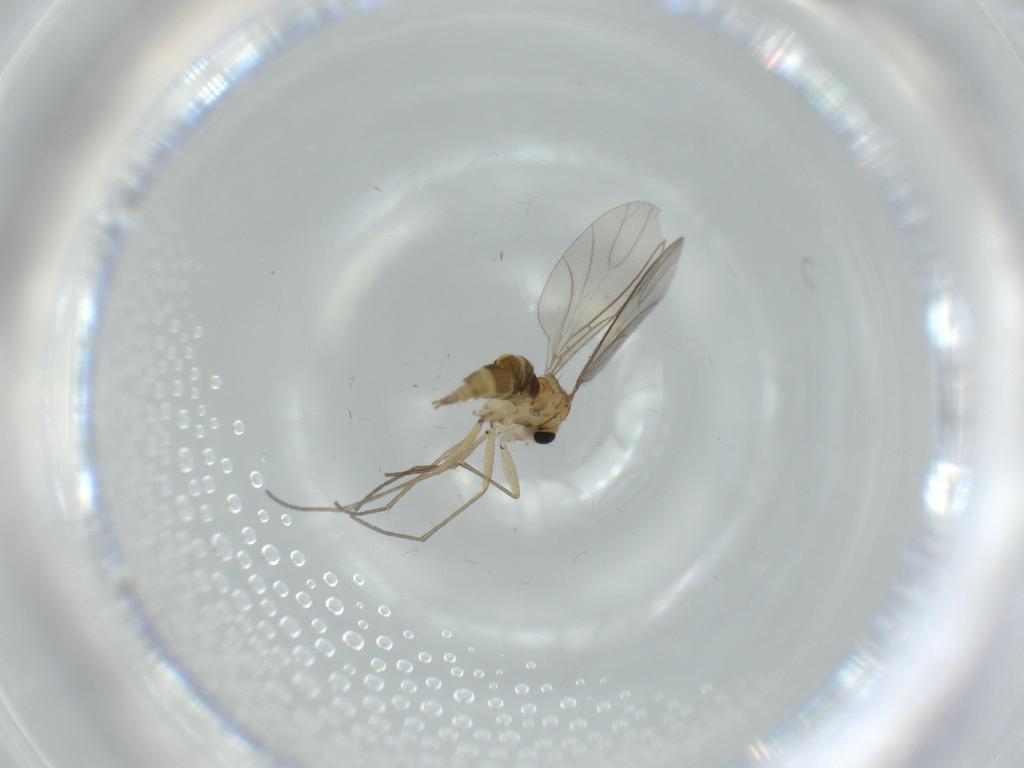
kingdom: Animalia
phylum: Arthropoda
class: Insecta
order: Diptera
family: Sciaridae
